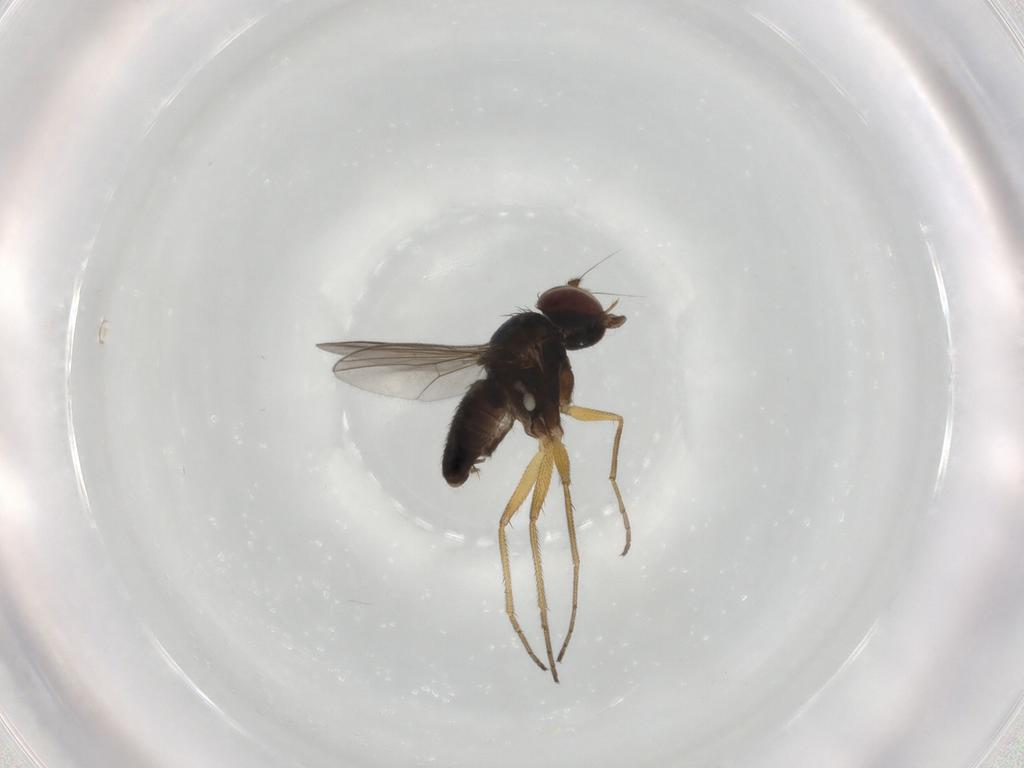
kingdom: Animalia
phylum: Arthropoda
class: Insecta
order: Diptera
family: Dolichopodidae
